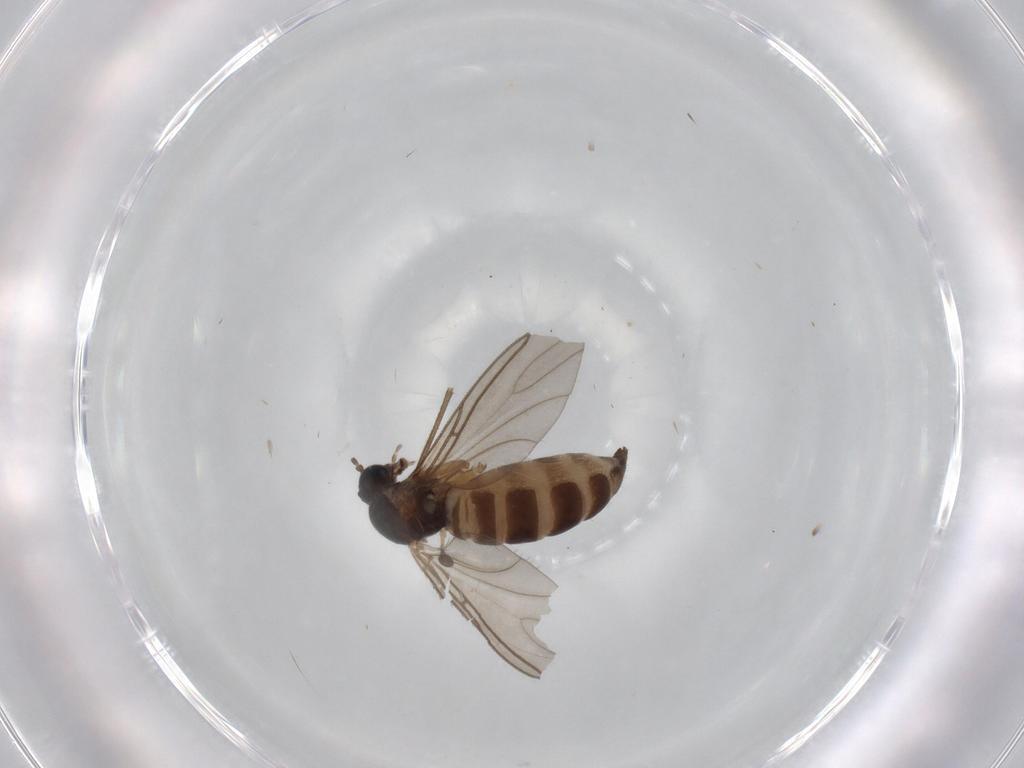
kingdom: Animalia
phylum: Arthropoda
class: Insecta
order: Diptera
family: Sciaridae
